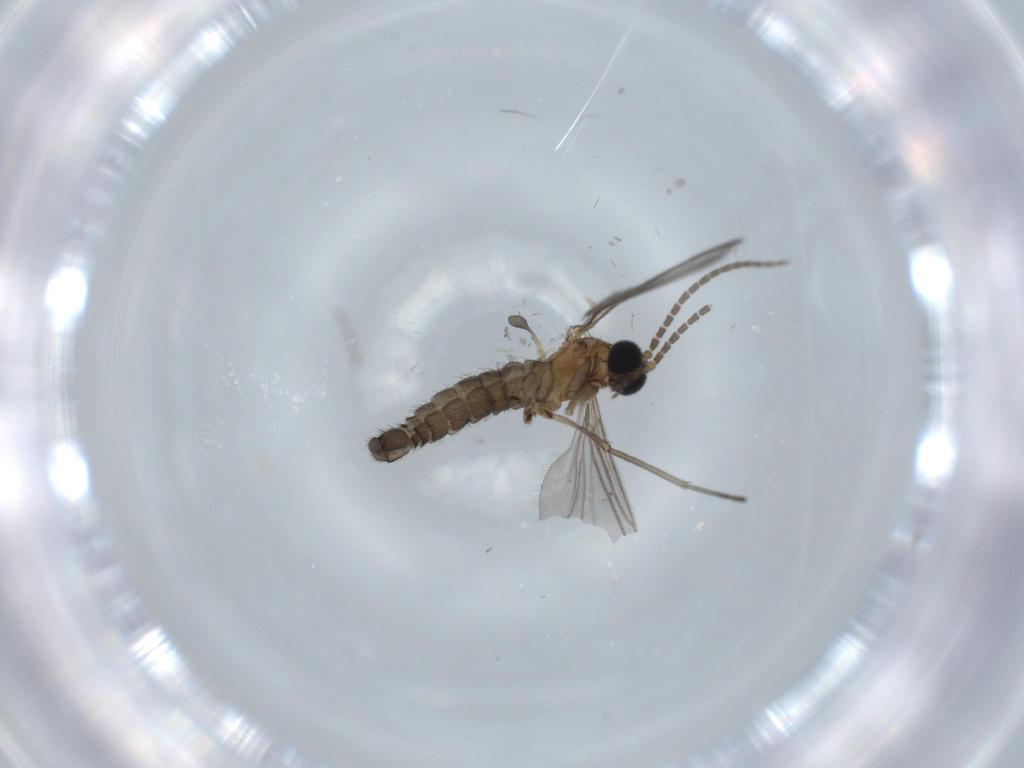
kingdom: Animalia
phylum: Arthropoda
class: Insecta
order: Diptera
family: Sciaridae
